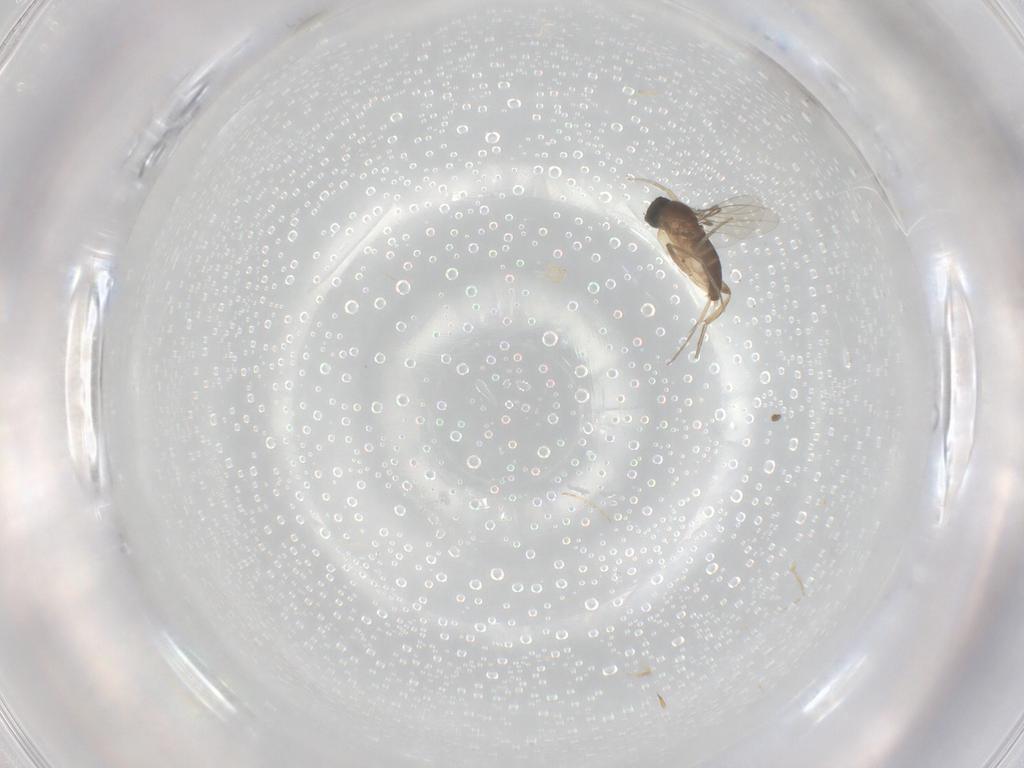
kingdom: Animalia
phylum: Arthropoda
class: Insecta
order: Diptera
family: Phoridae
